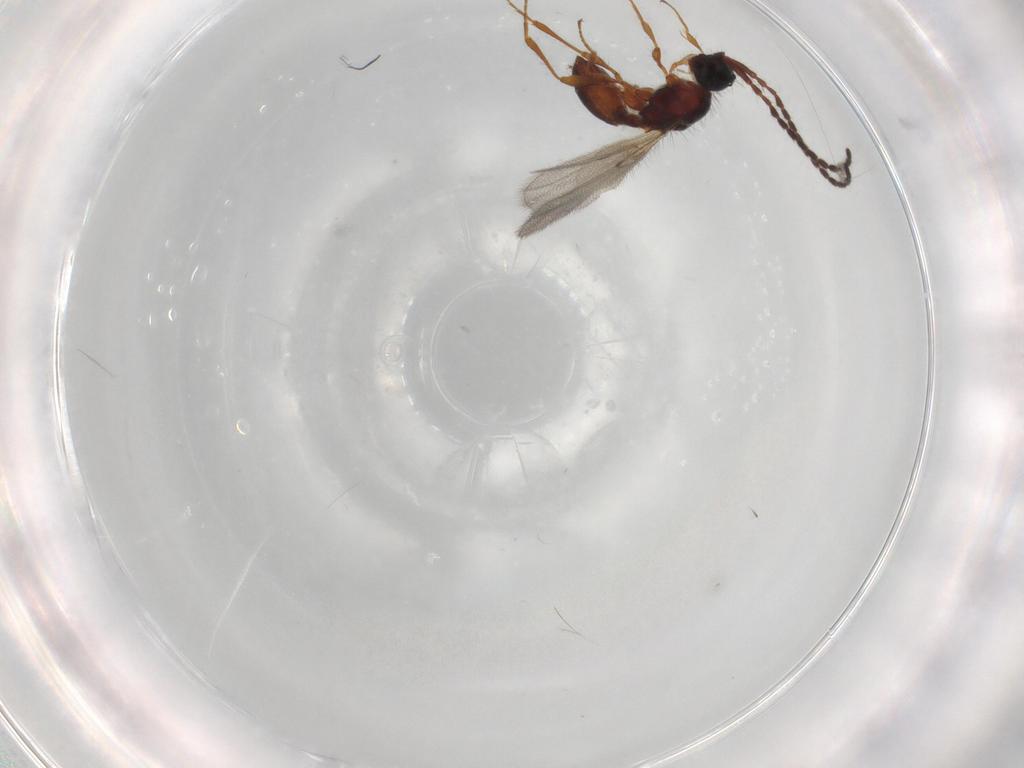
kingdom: Animalia
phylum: Arthropoda
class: Insecta
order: Hymenoptera
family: Diapriidae
